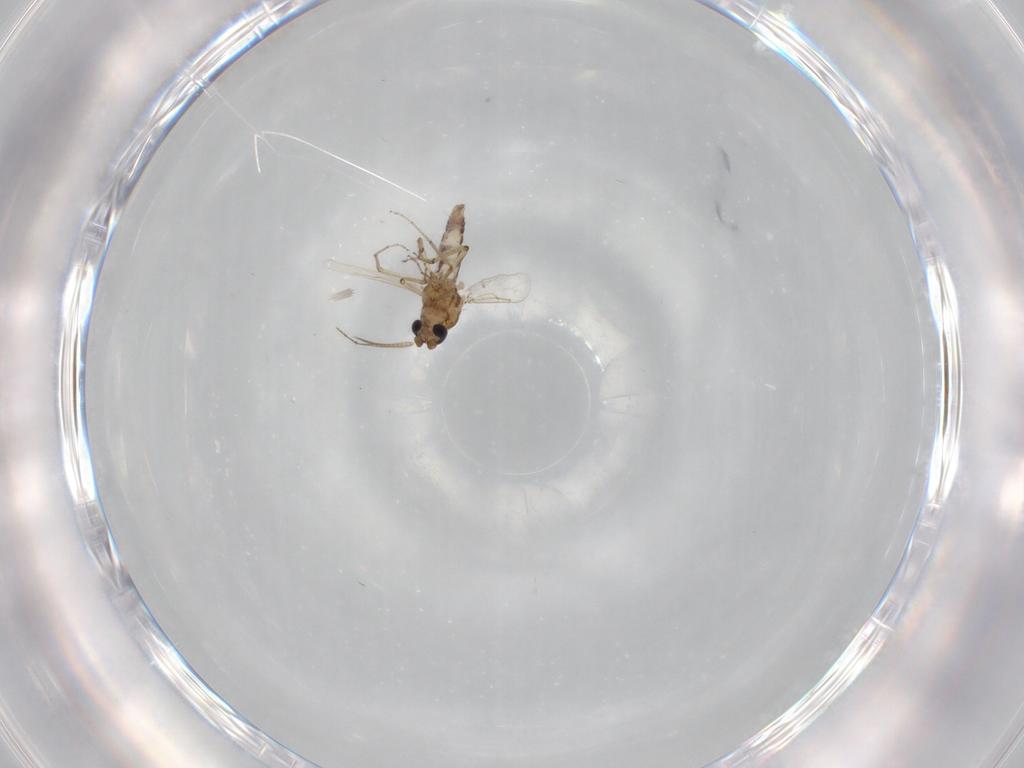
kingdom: Animalia
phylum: Arthropoda
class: Insecta
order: Diptera
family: Ceratopogonidae
